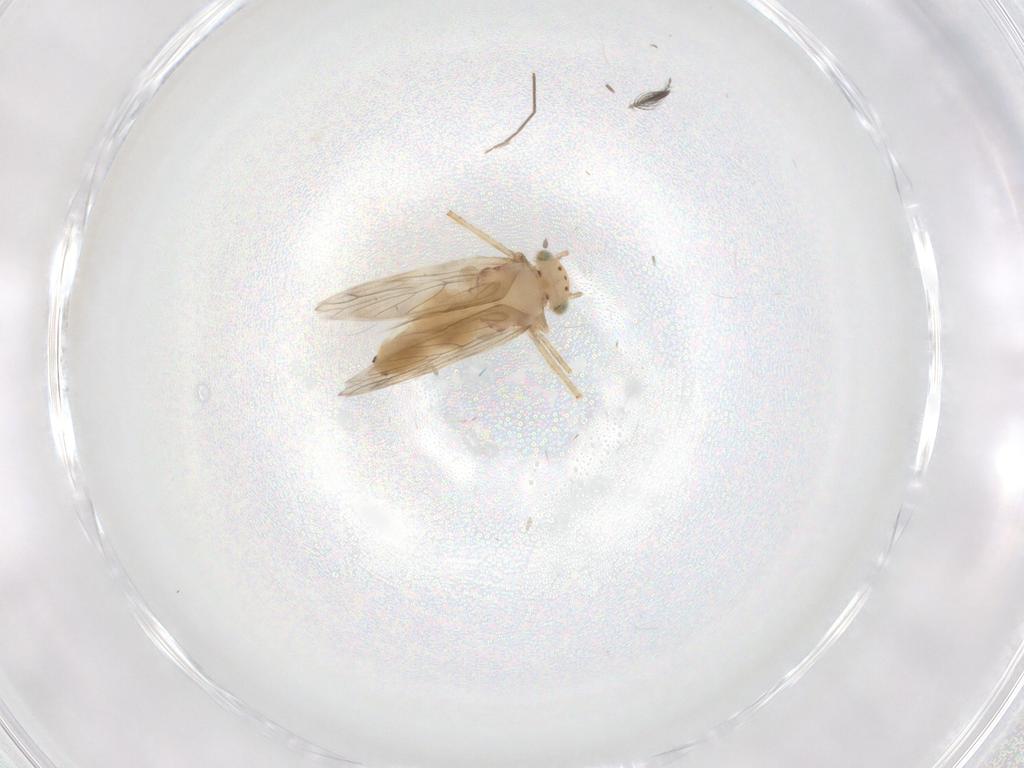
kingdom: Animalia
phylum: Arthropoda
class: Insecta
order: Psocodea
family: Lepidopsocidae
